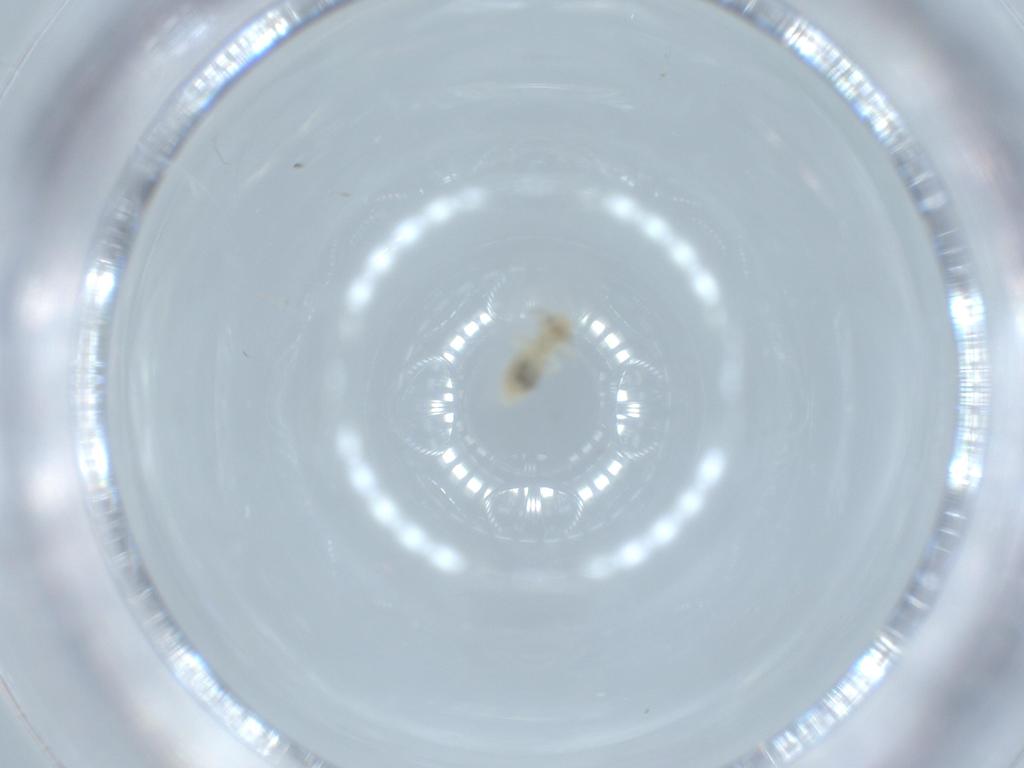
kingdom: Animalia
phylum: Arthropoda
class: Insecta
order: Psocodea
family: Caeciliusidae
